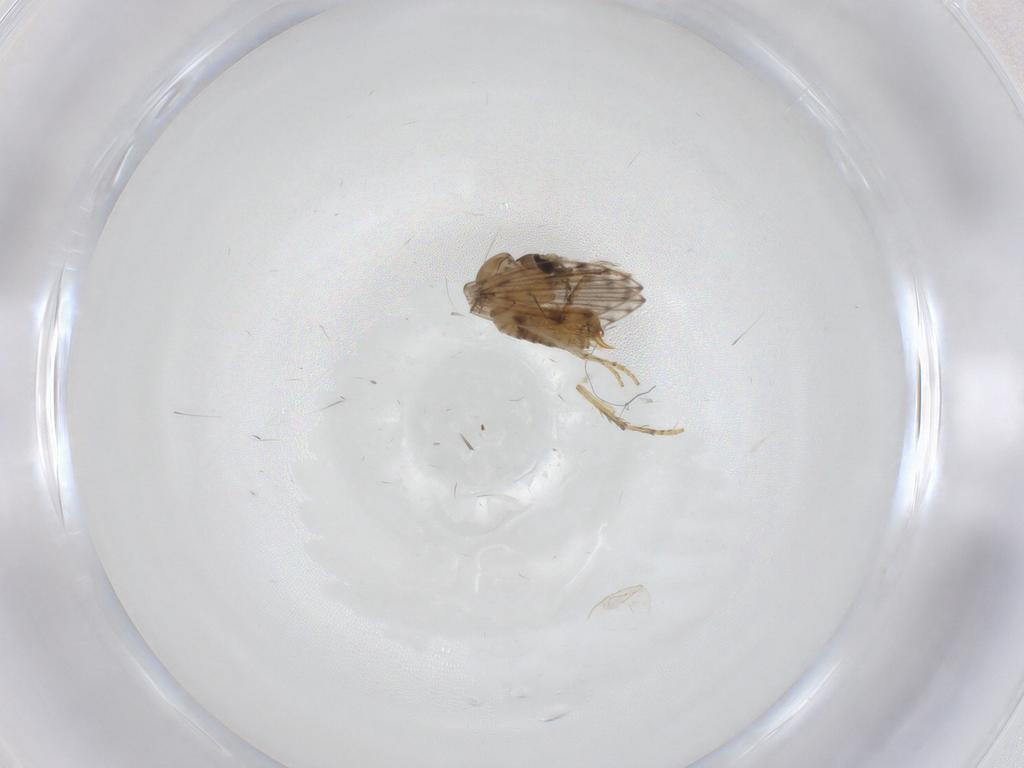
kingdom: Animalia
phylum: Arthropoda
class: Insecta
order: Diptera
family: Psychodidae
